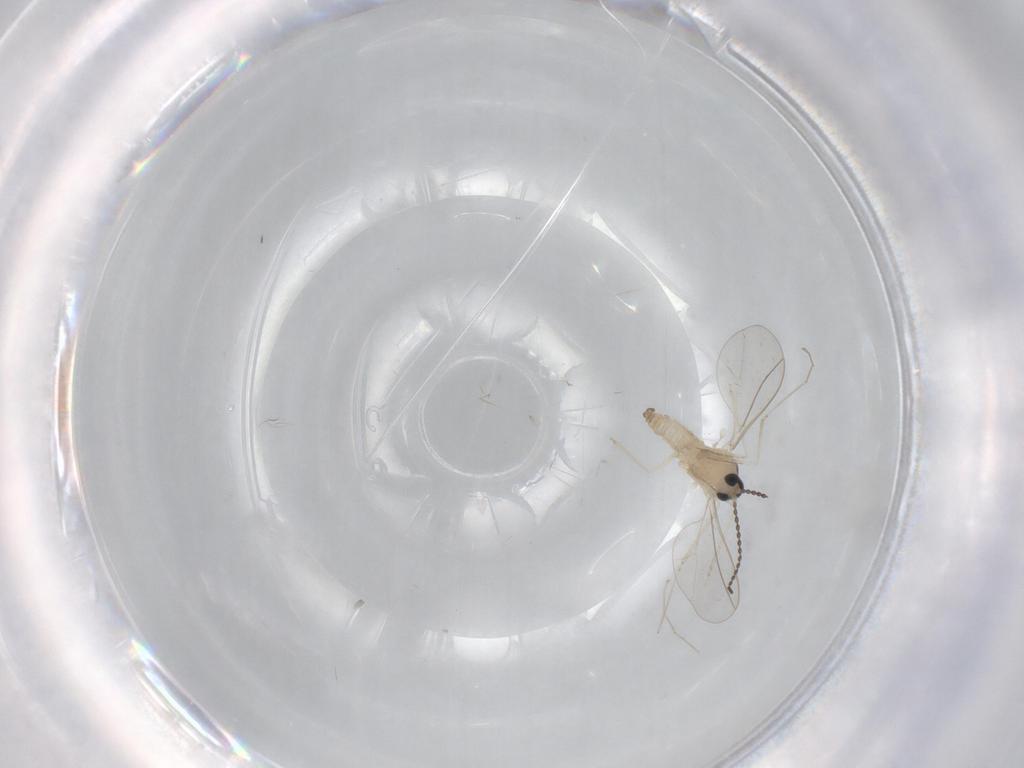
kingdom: Animalia
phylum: Arthropoda
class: Insecta
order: Diptera
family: Cecidomyiidae
